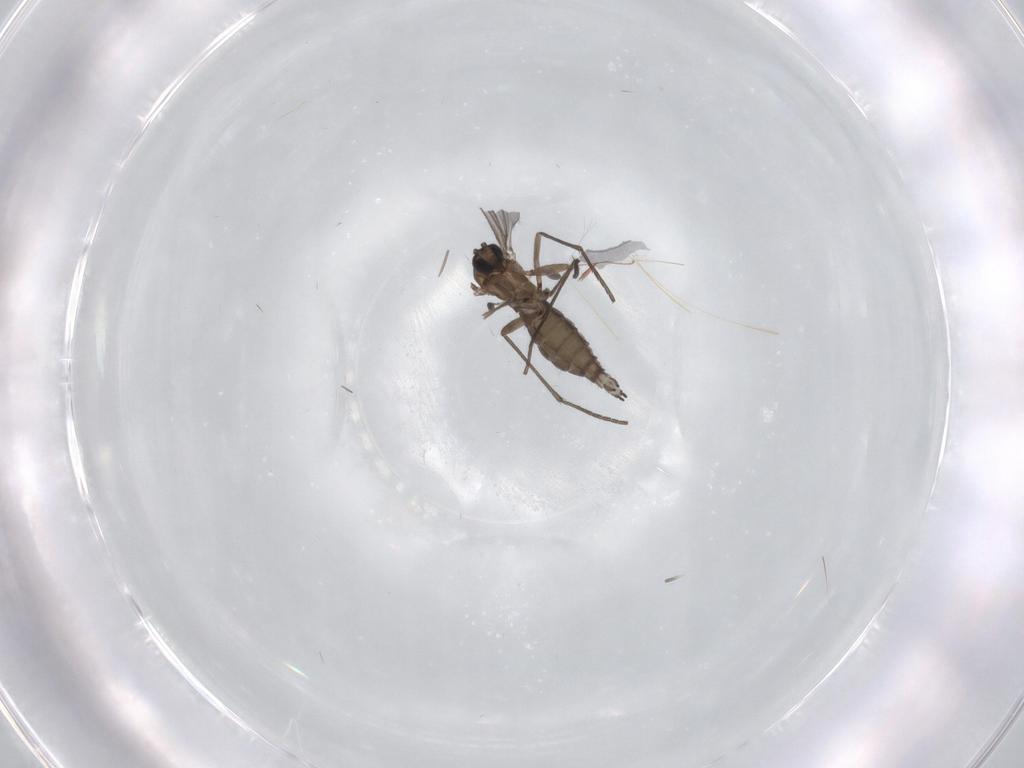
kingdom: Animalia
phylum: Arthropoda
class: Insecta
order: Diptera
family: Sciaridae
